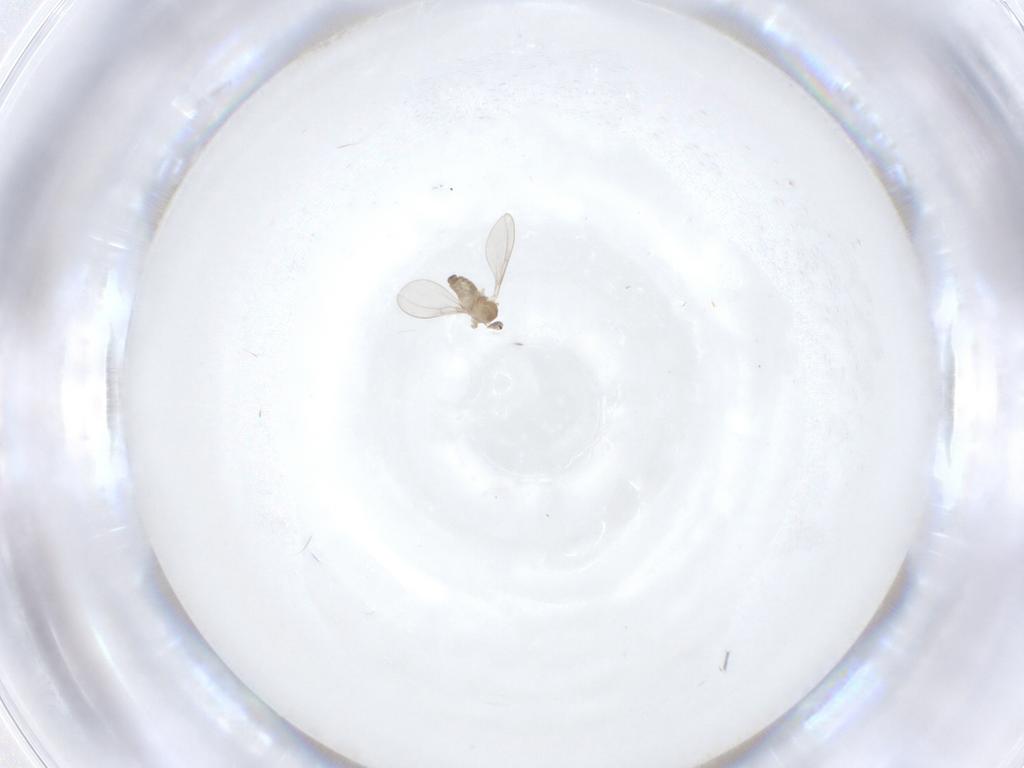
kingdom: Animalia
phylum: Arthropoda
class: Insecta
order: Diptera
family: Cecidomyiidae
